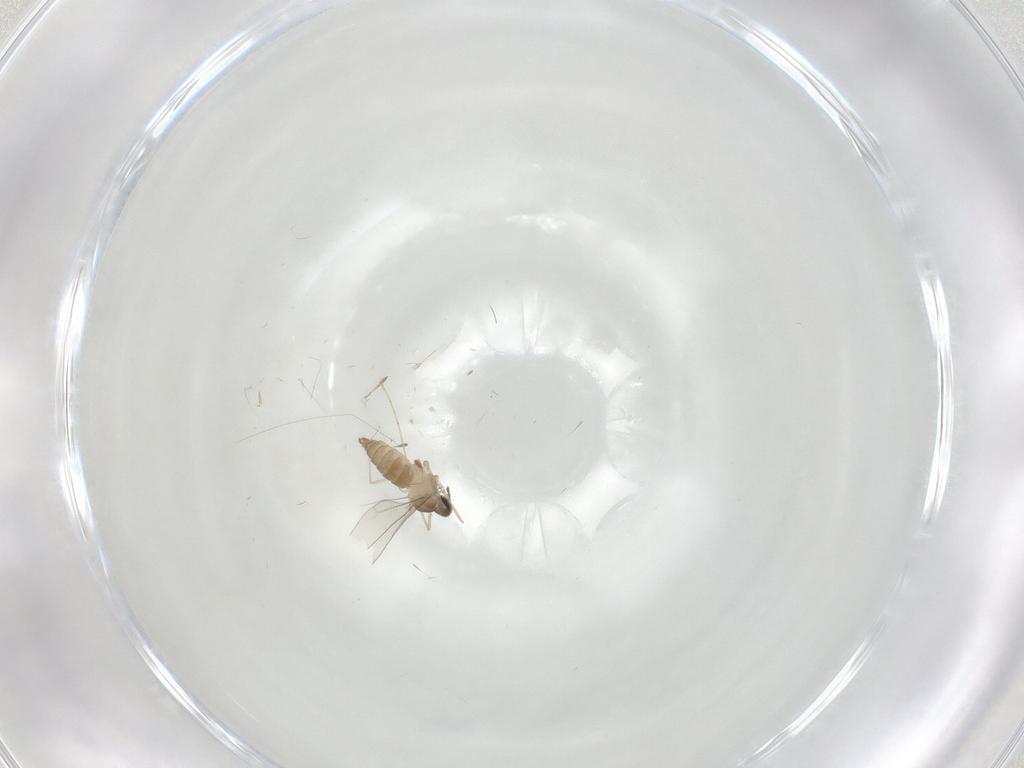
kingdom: Animalia
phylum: Arthropoda
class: Insecta
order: Diptera
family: Cecidomyiidae
